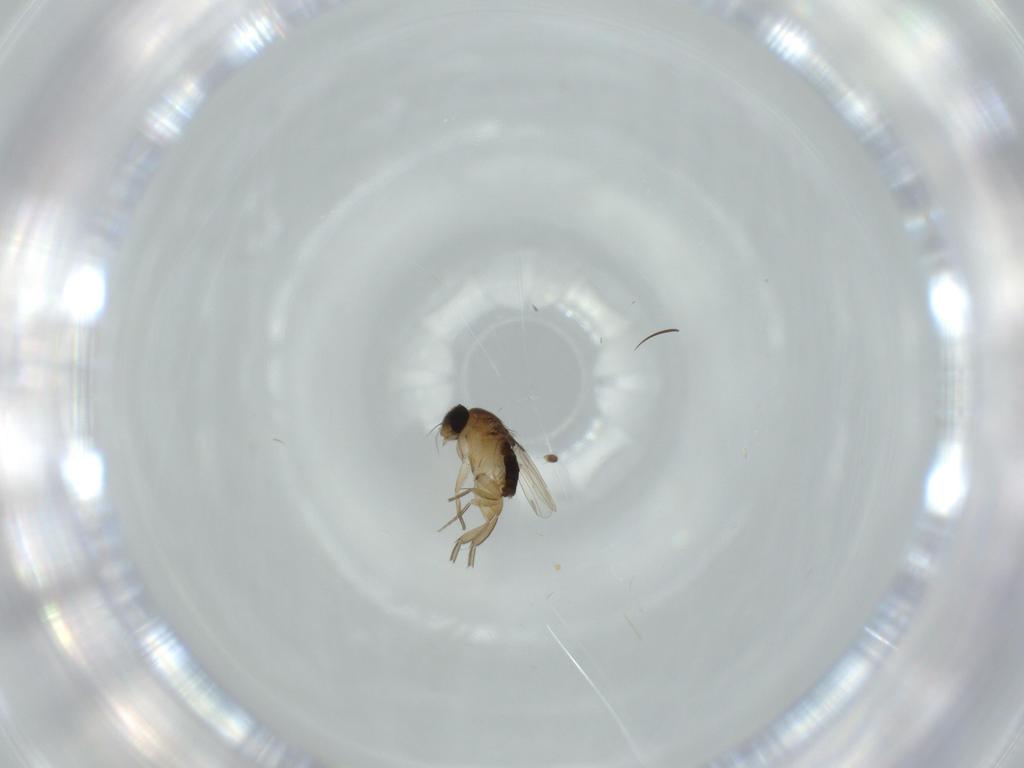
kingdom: Animalia
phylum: Arthropoda
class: Insecta
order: Diptera
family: Phoridae
